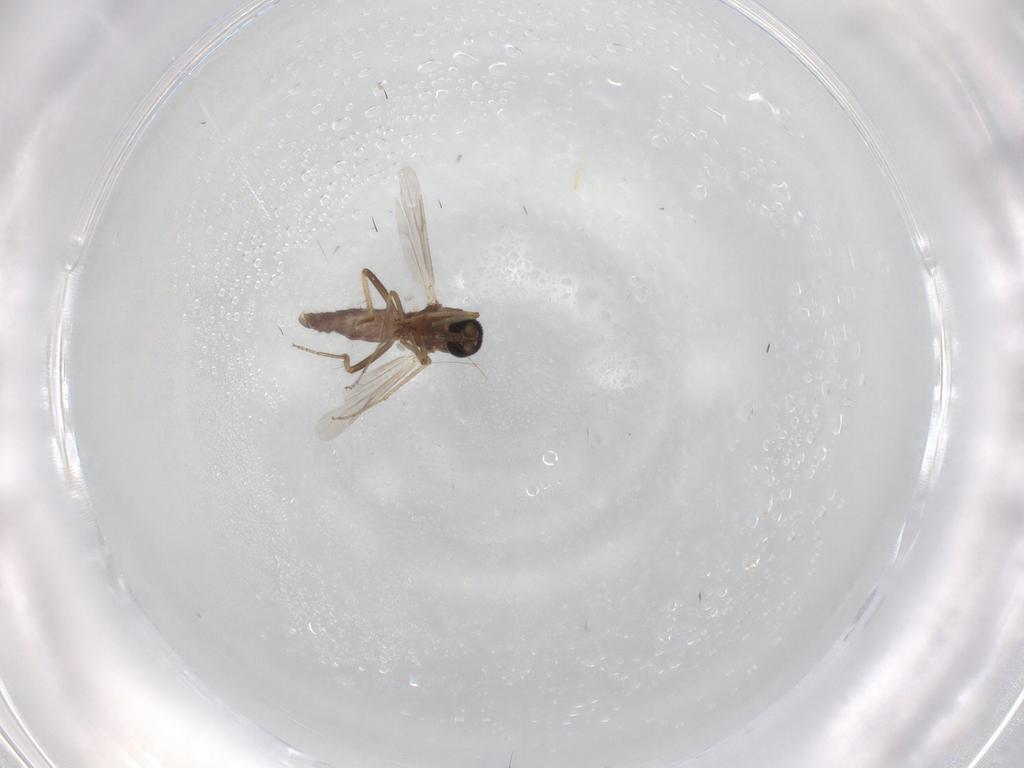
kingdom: Animalia
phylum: Arthropoda
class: Insecta
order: Diptera
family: Ceratopogonidae
